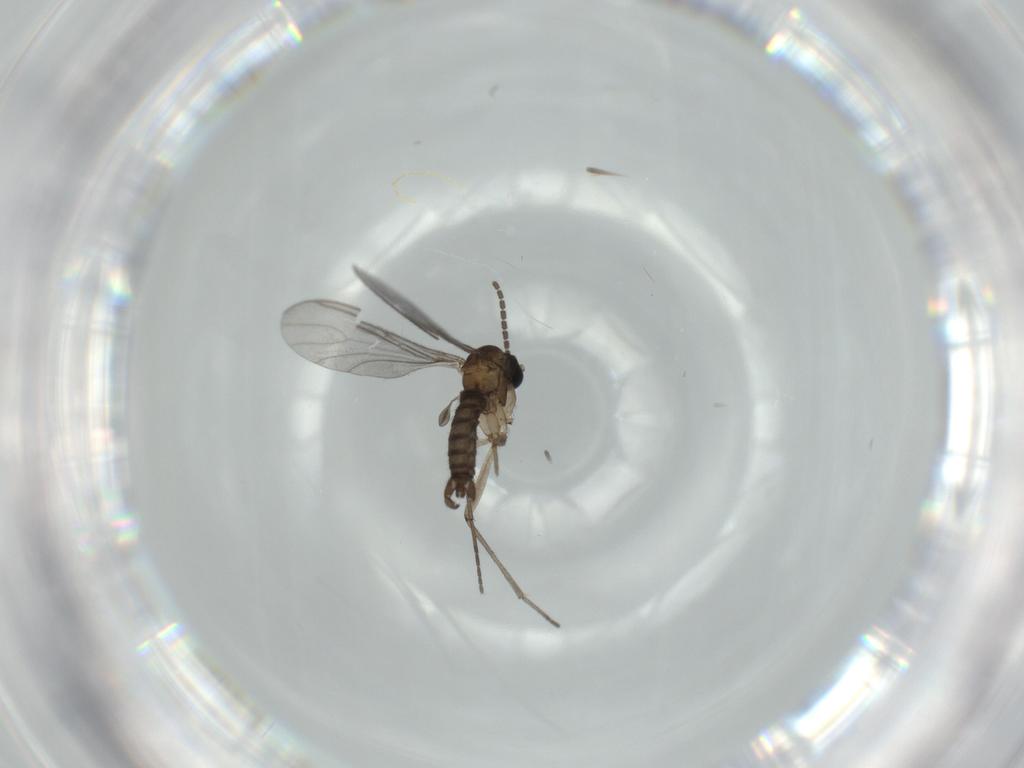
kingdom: Animalia
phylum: Arthropoda
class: Insecta
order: Diptera
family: Sciaridae
